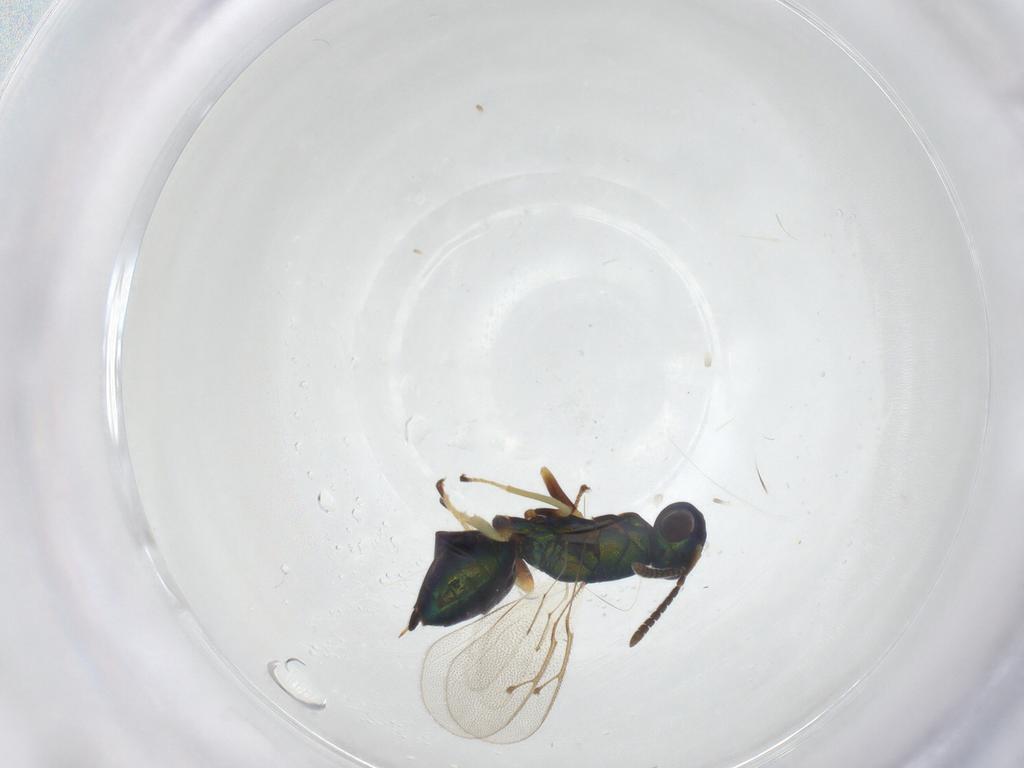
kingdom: Animalia
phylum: Arthropoda
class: Insecta
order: Hymenoptera
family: Pteromalidae
